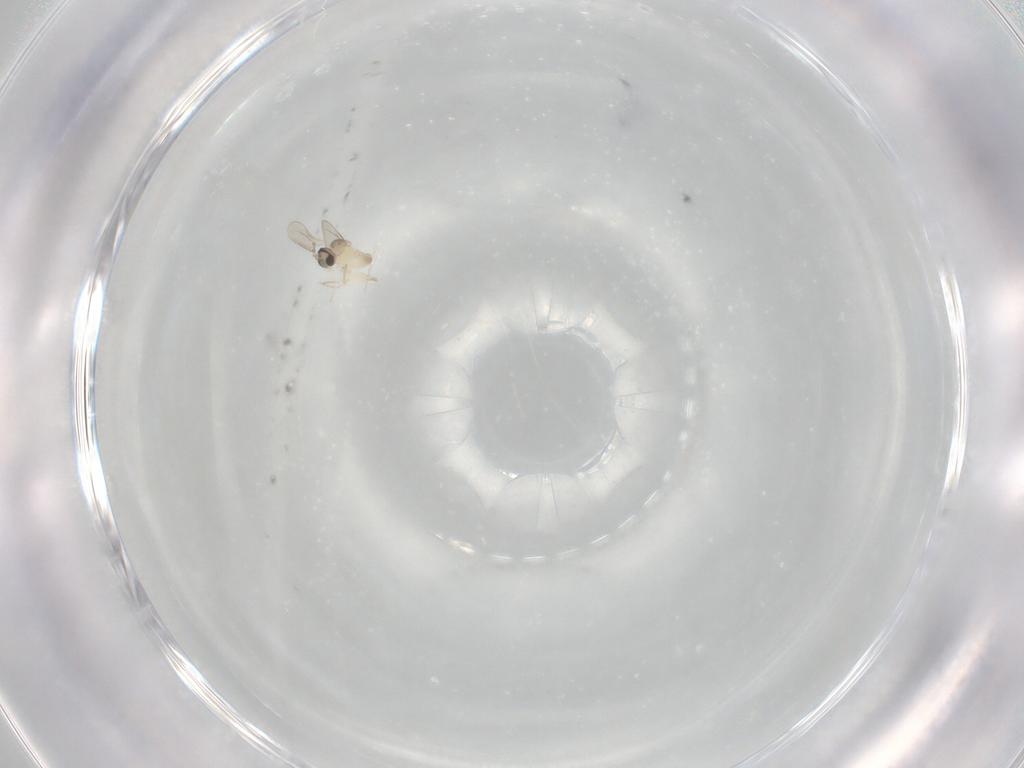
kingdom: Animalia
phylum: Arthropoda
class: Insecta
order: Diptera
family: Cecidomyiidae
